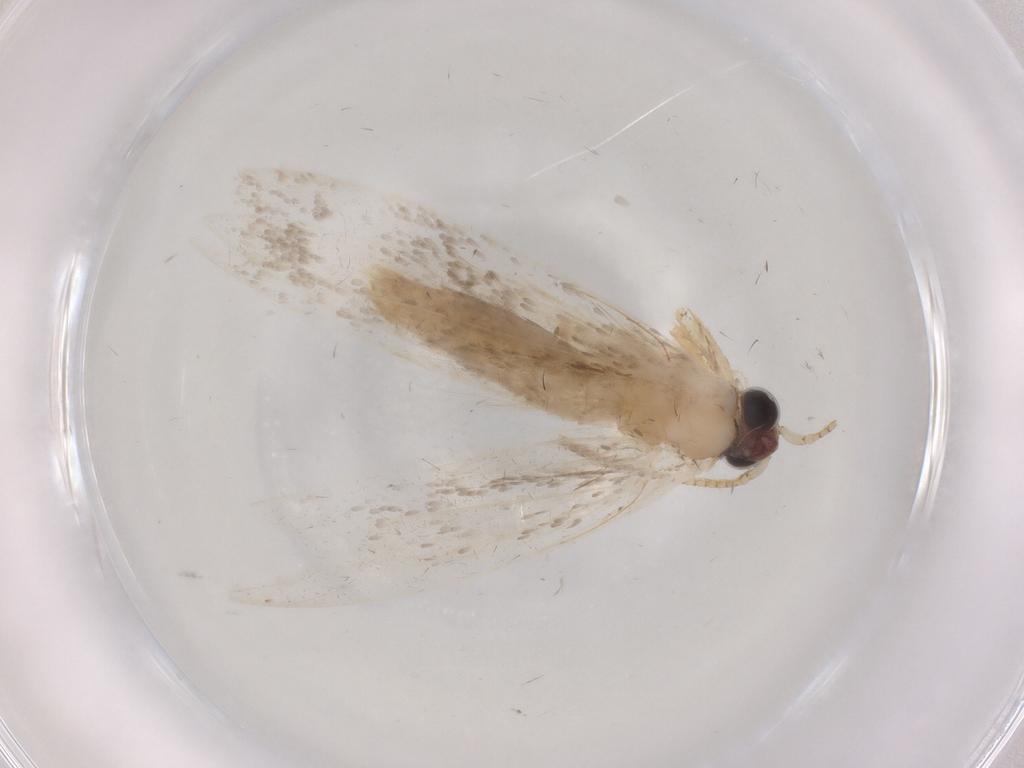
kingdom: Animalia
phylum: Arthropoda
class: Insecta
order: Lepidoptera
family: Tineidae
